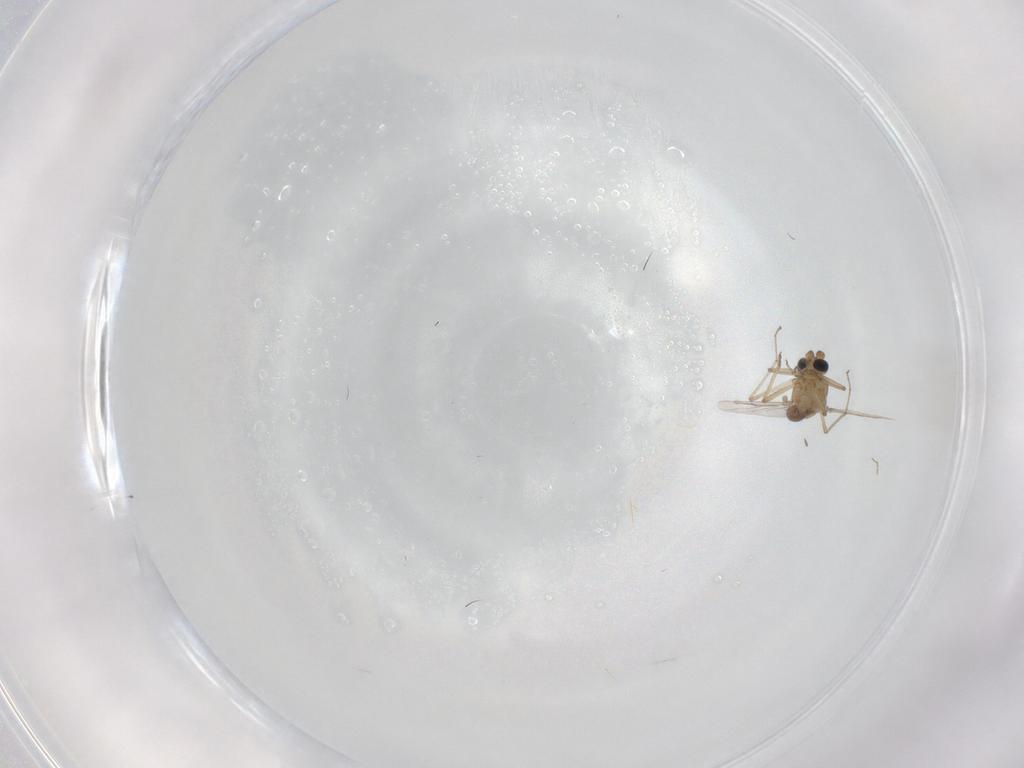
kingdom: Animalia
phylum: Arthropoda
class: Insecta
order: Diptera
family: Ceratopogonidae
